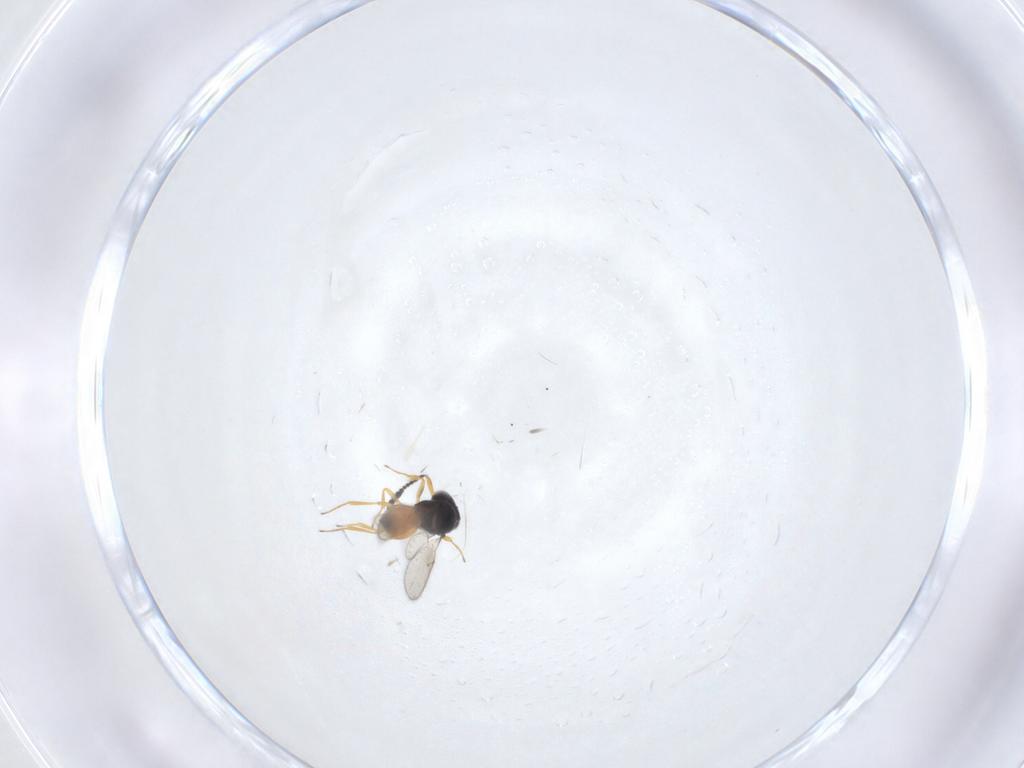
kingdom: Animalia
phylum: Arthropoda
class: Insecta
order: Hymenoptera
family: Scelionidae
